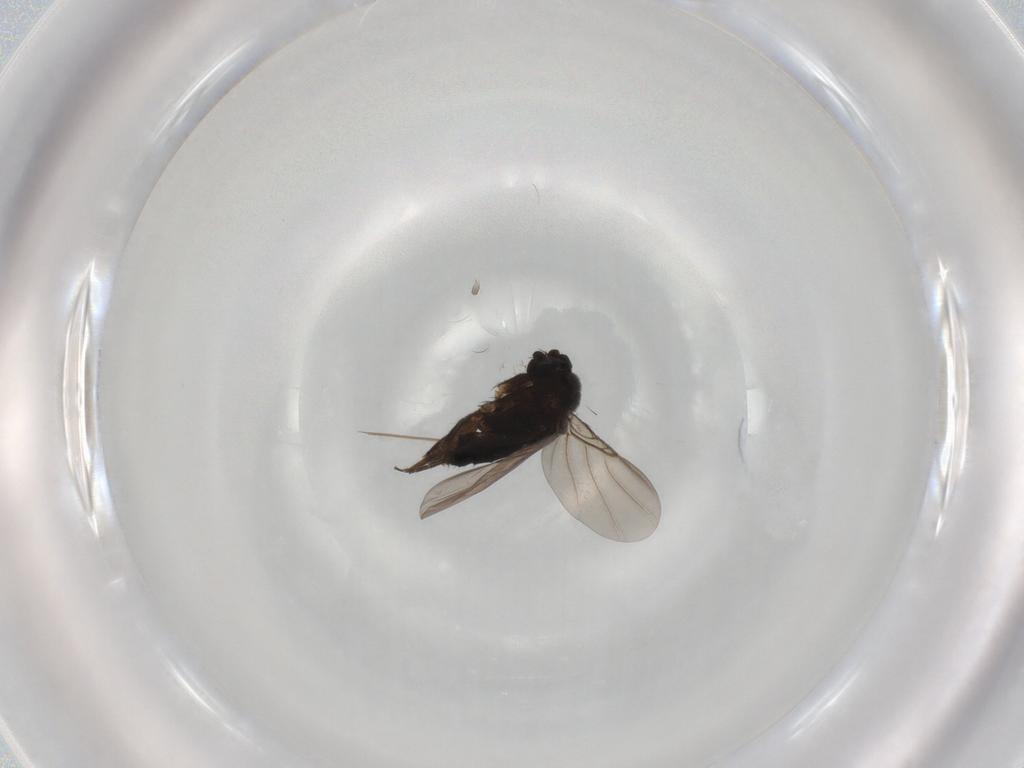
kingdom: Animalia
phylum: Arthropoda
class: Insecta
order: Diptera
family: Phoridae
